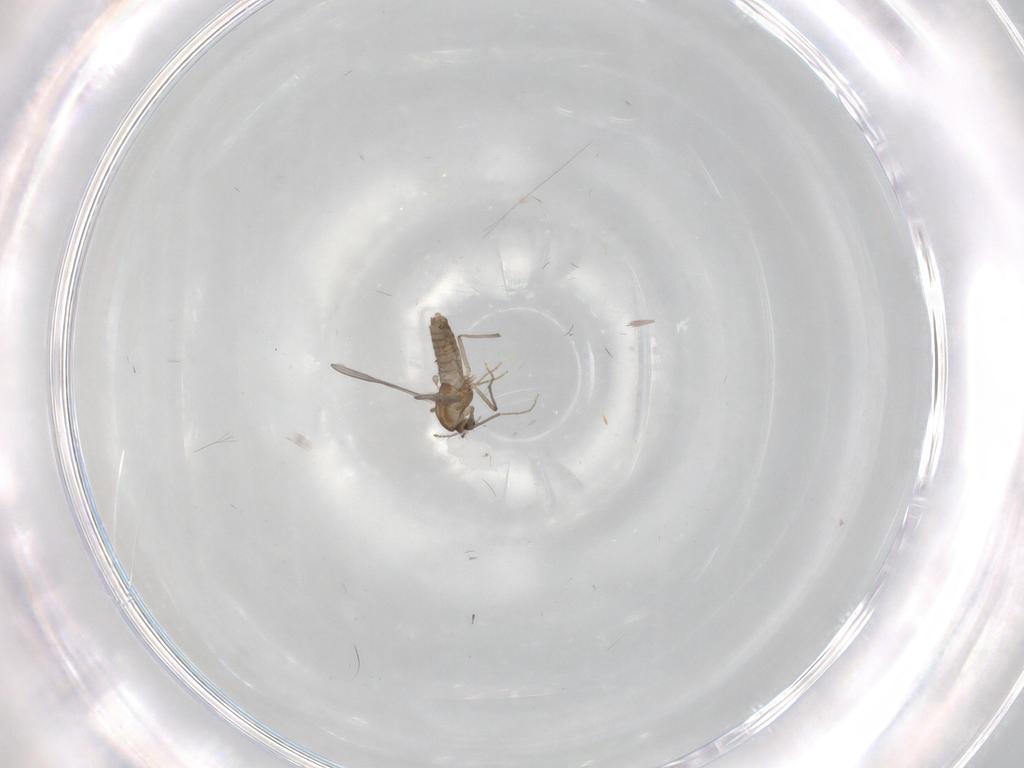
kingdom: Animalia
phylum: Arthropoda
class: Insecta
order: Diptera
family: Chironomidae
